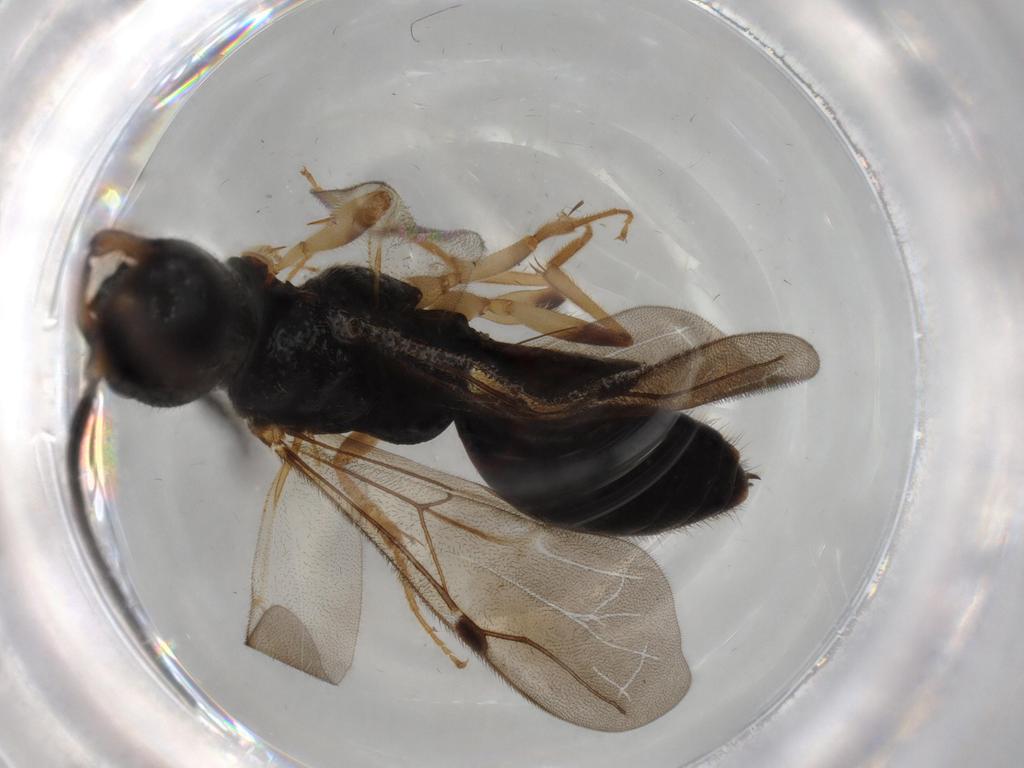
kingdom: Animalia
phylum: Arthropoda
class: Insecta
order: Hymenoptera
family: Bethylidae
